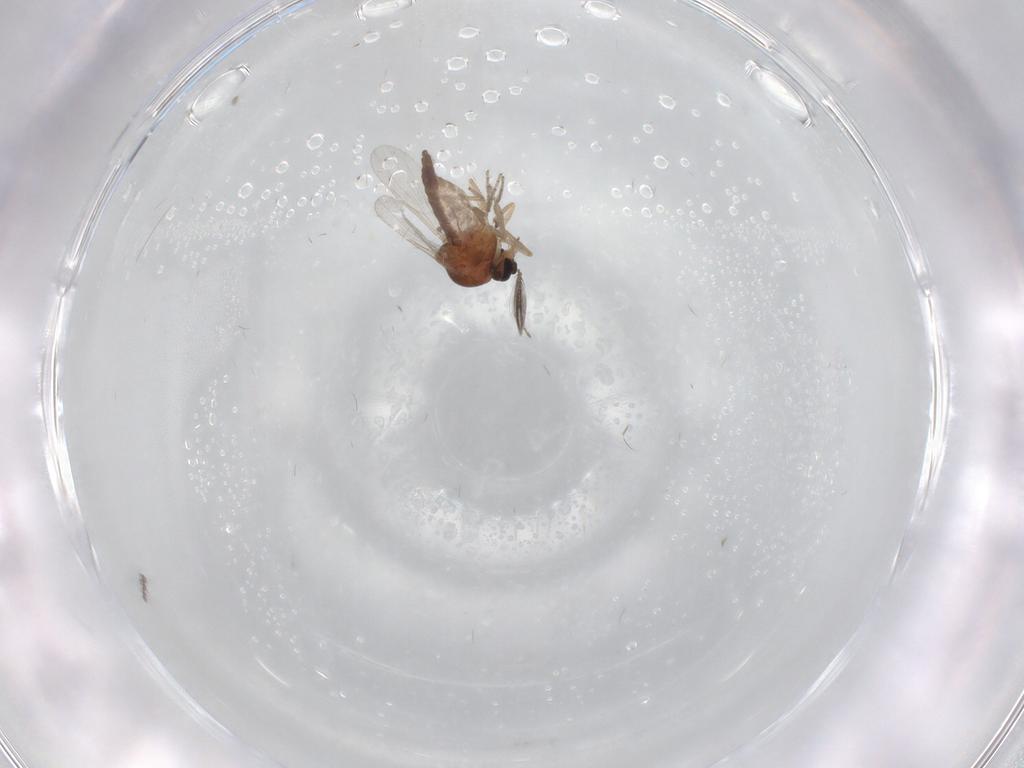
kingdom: Animalia
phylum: Arthropoda
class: Insecta
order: Diptera
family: Ceratopogonidae
